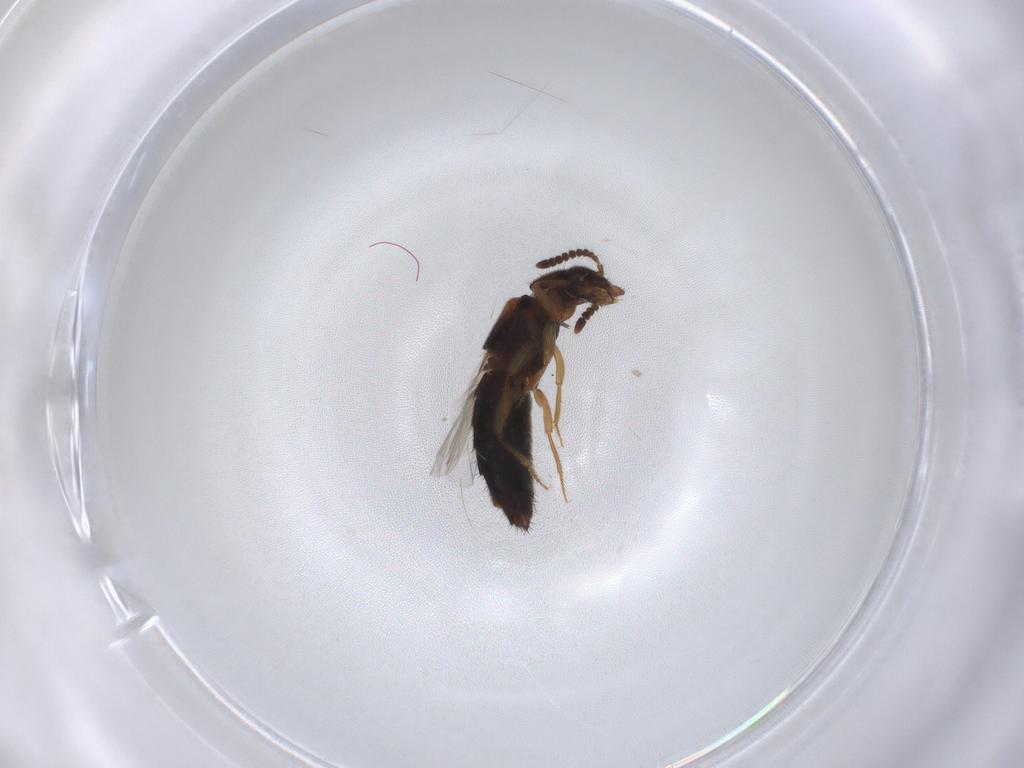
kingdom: Animalia
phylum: Arthropoda
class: Insecta
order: Coleoptera
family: Staphylinidae
